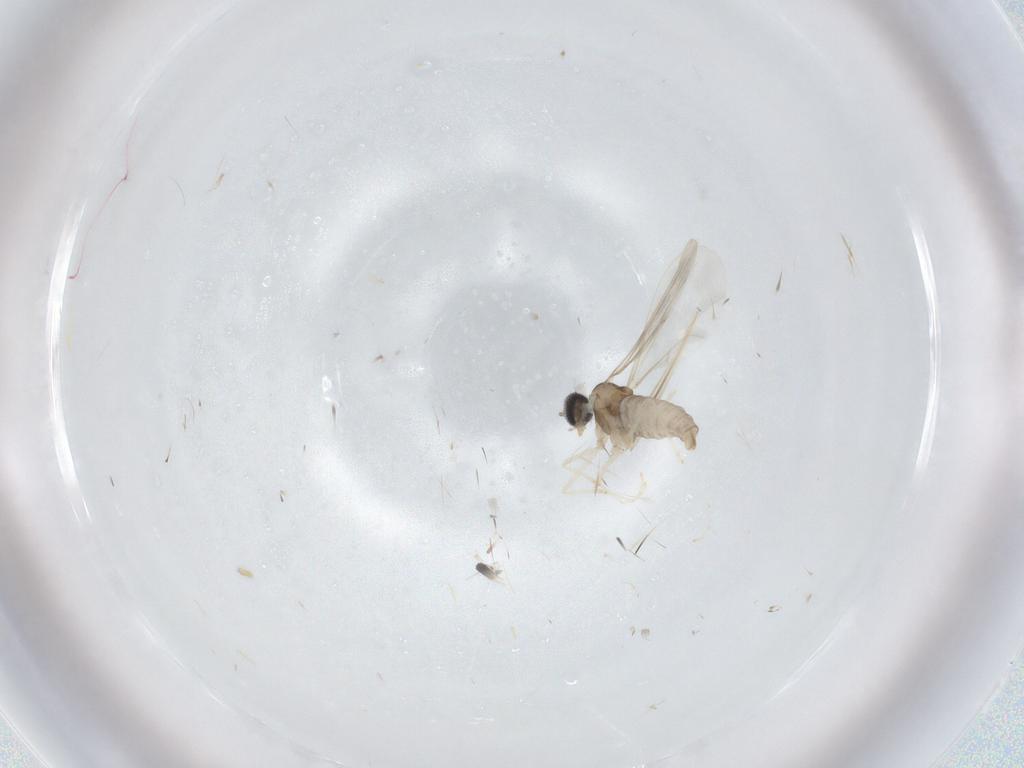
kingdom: Animalia
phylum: Arthropoda
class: Insecta
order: Diptera
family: Cecidomyiidae
